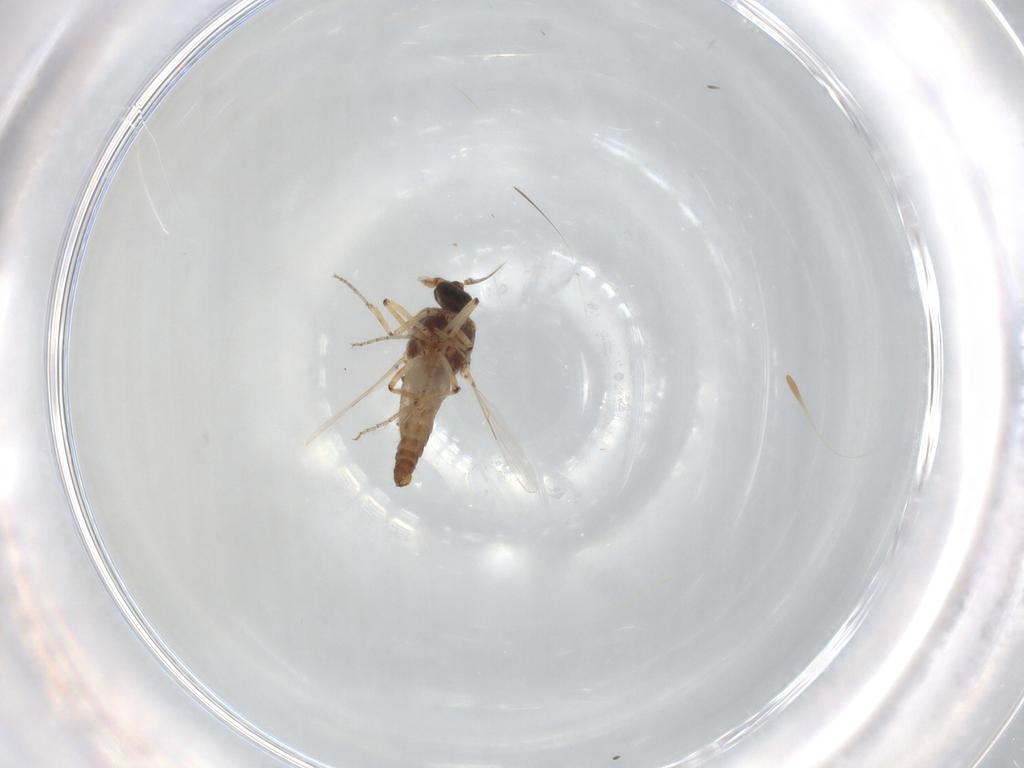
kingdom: Animalia
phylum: Arthropoda
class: Insecta
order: Diptera
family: Ceratopogonidae
